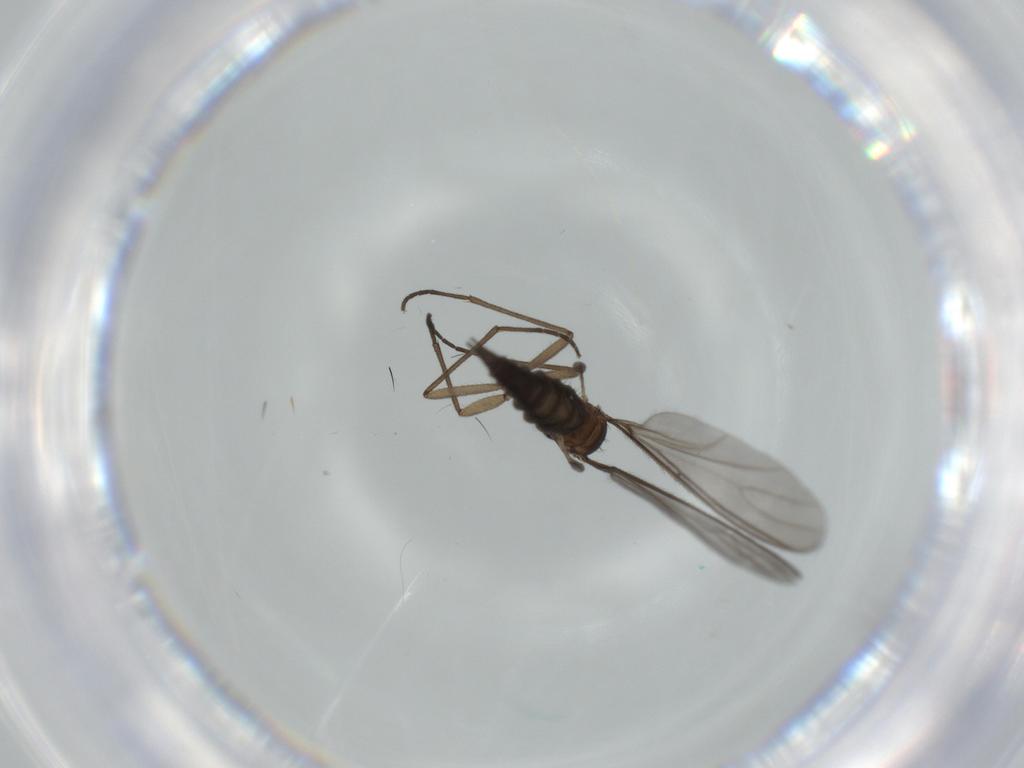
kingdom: Animalia
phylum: Arthropoda
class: Insecta
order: Diptera
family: Sciaridae
